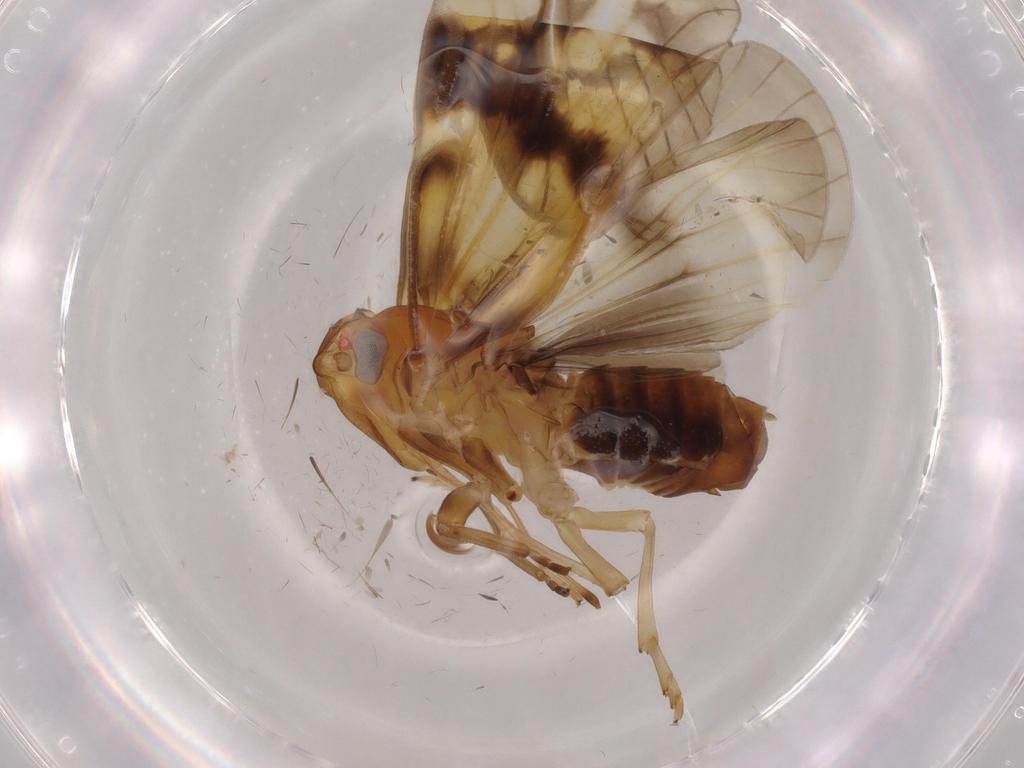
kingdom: Animalia
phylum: Arthropoda
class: Insecta
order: Hemiptera
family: Cixiidae
